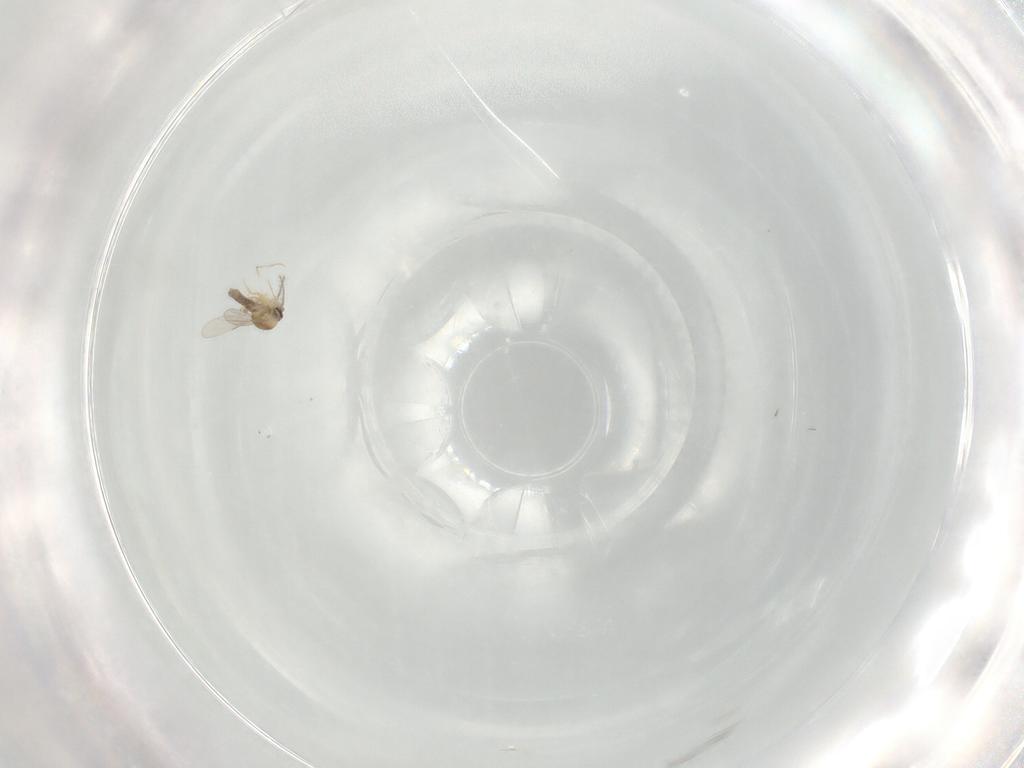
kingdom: Animalia
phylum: Arthropoda
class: Insecta
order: Diptera
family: Ceratopogonidae
